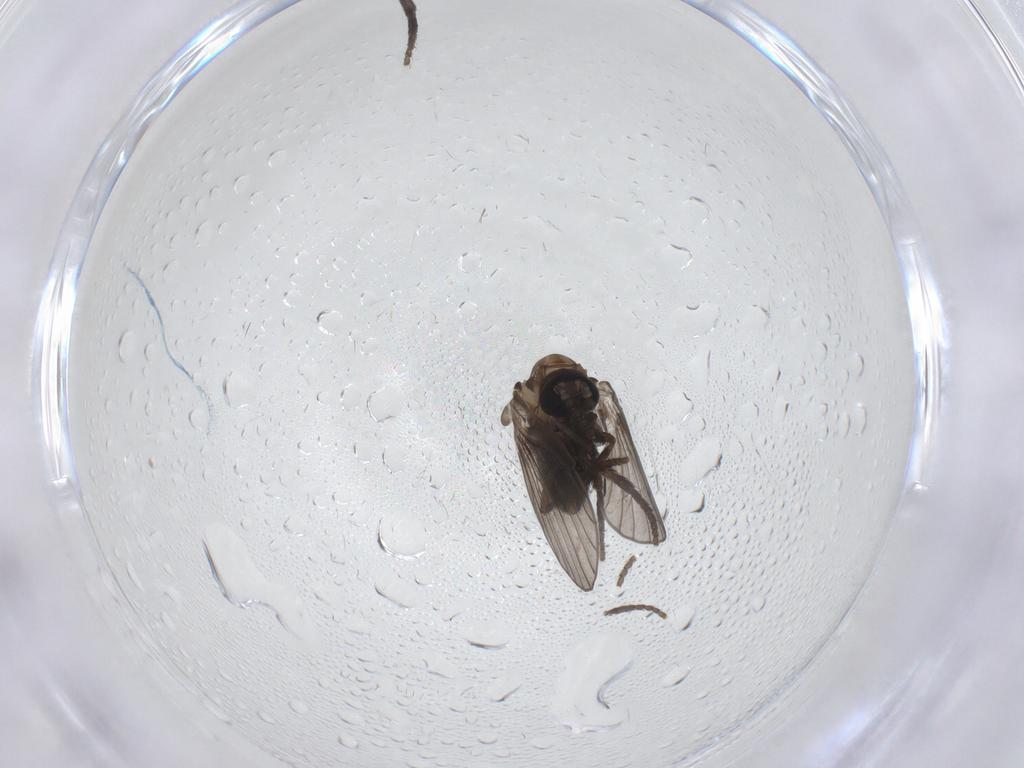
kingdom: Animalia
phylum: Arthropoda
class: Insecta
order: Diptera
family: Psychodidae
